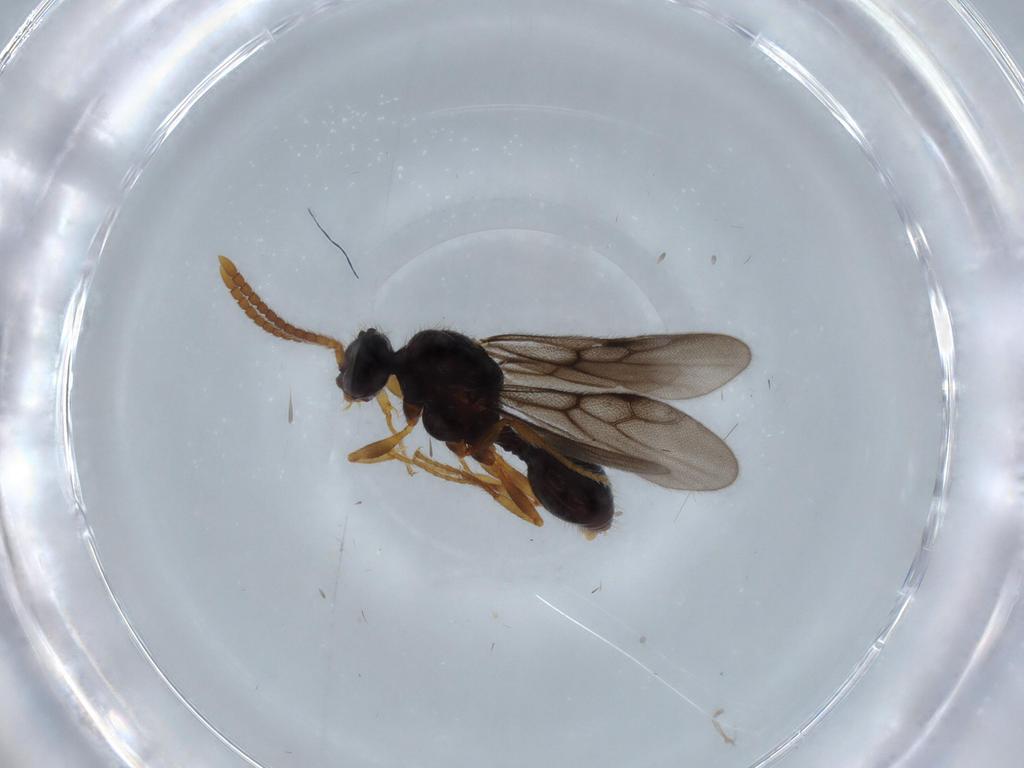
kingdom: Animalia
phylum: Arthropoda
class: Insecta
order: Hymenoptera
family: Formicidae
